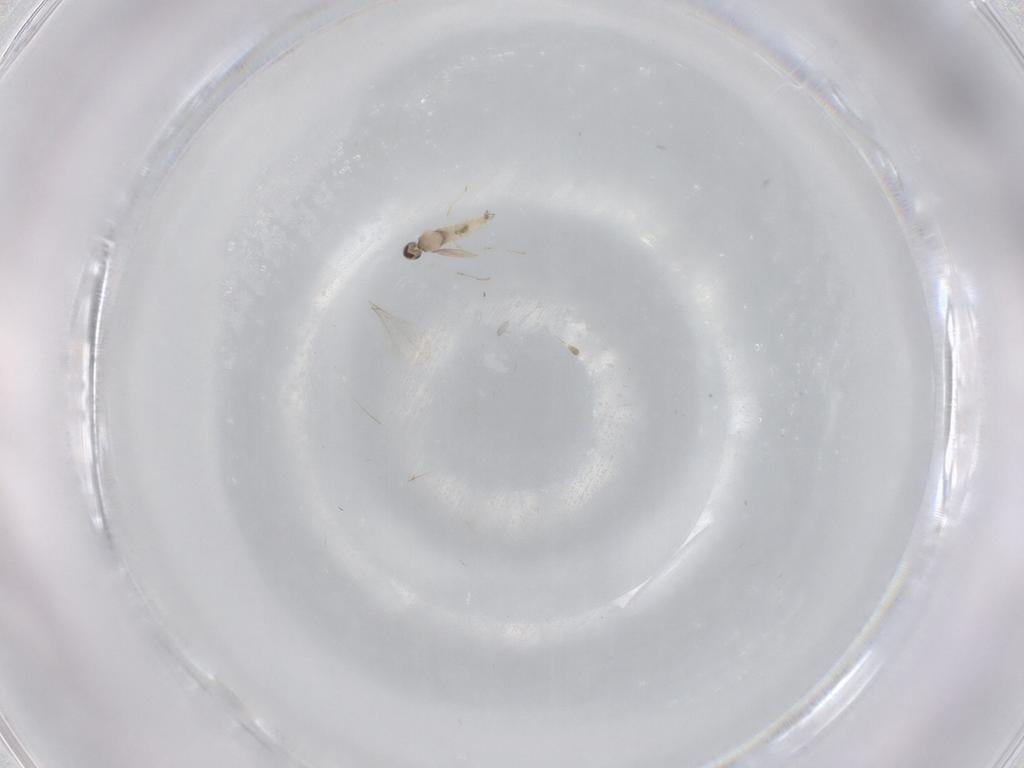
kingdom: Animalia
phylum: Arthropoda
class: Insecta
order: Diptera
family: Cecidomyiidae
